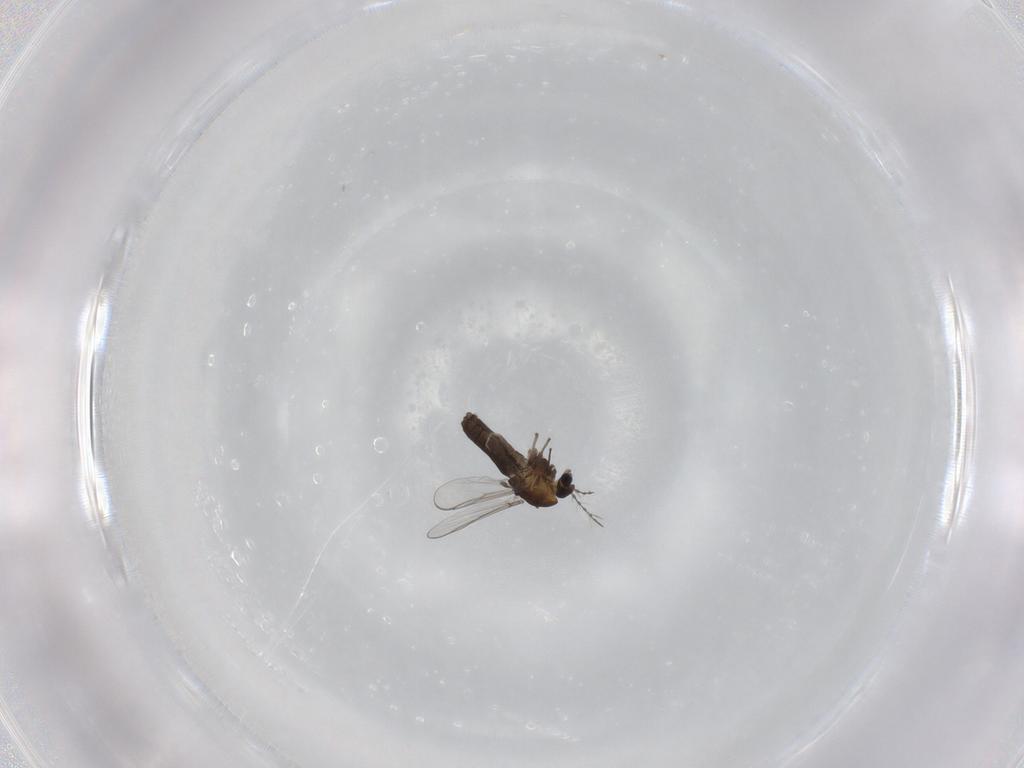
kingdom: Animalia
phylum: Arthropoda
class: Insecta
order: Diptera
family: Chironomidae
